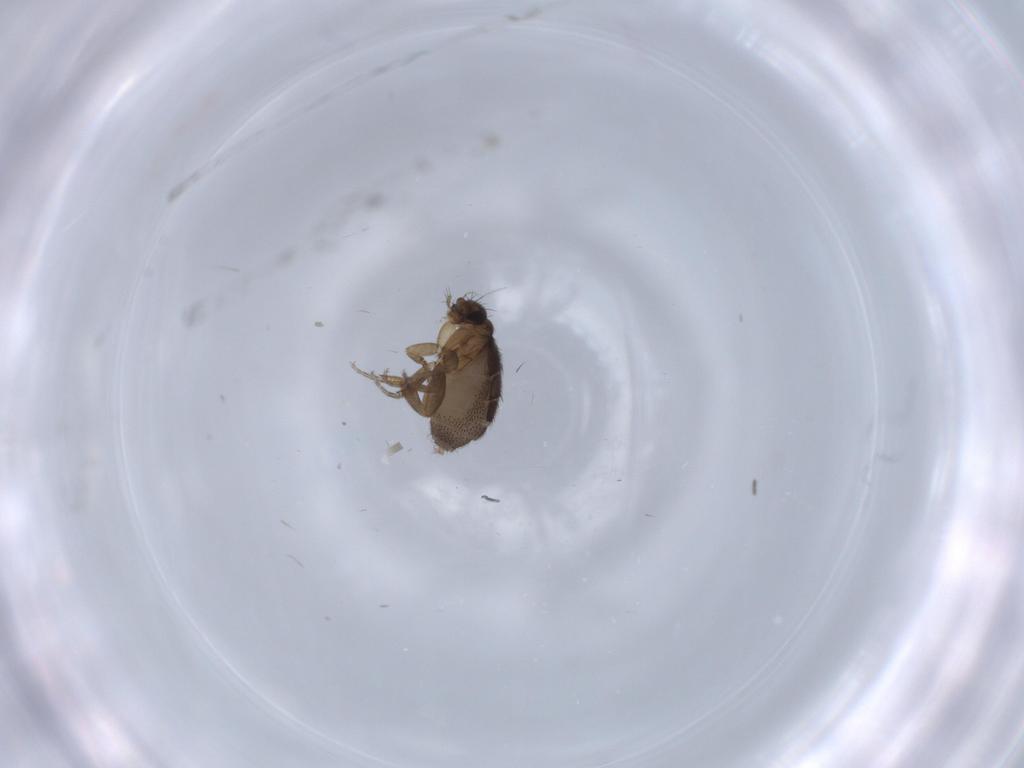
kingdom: Animalia
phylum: Arthropoda
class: Insecta
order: Diptera
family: Phoridae
